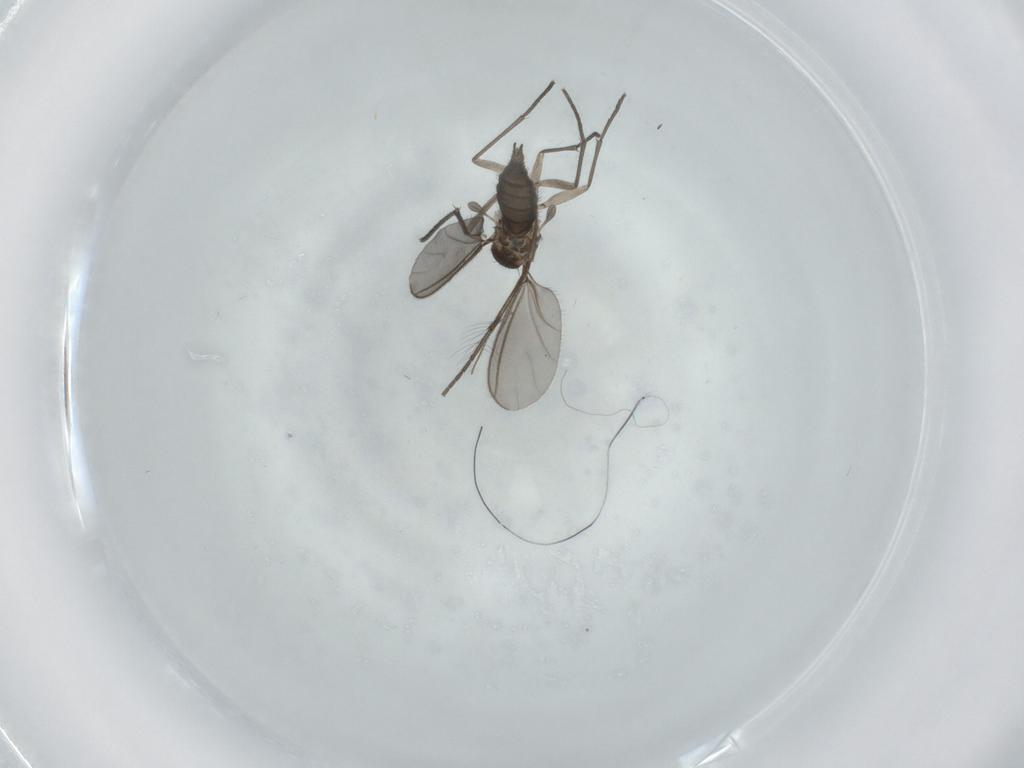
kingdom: Animalia
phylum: Arthropoda
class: Insecta
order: Diptera
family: Sciaridae
